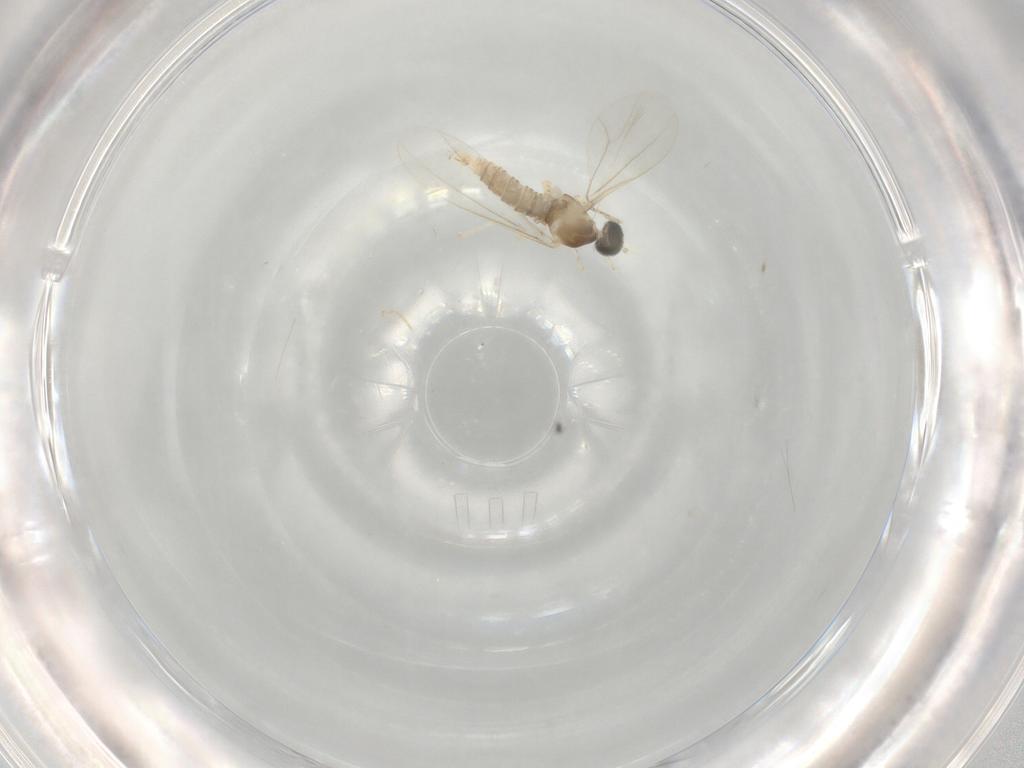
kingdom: Animalia
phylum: Arthropoda
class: Insecta
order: Diptera
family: Cecidomyiidae
